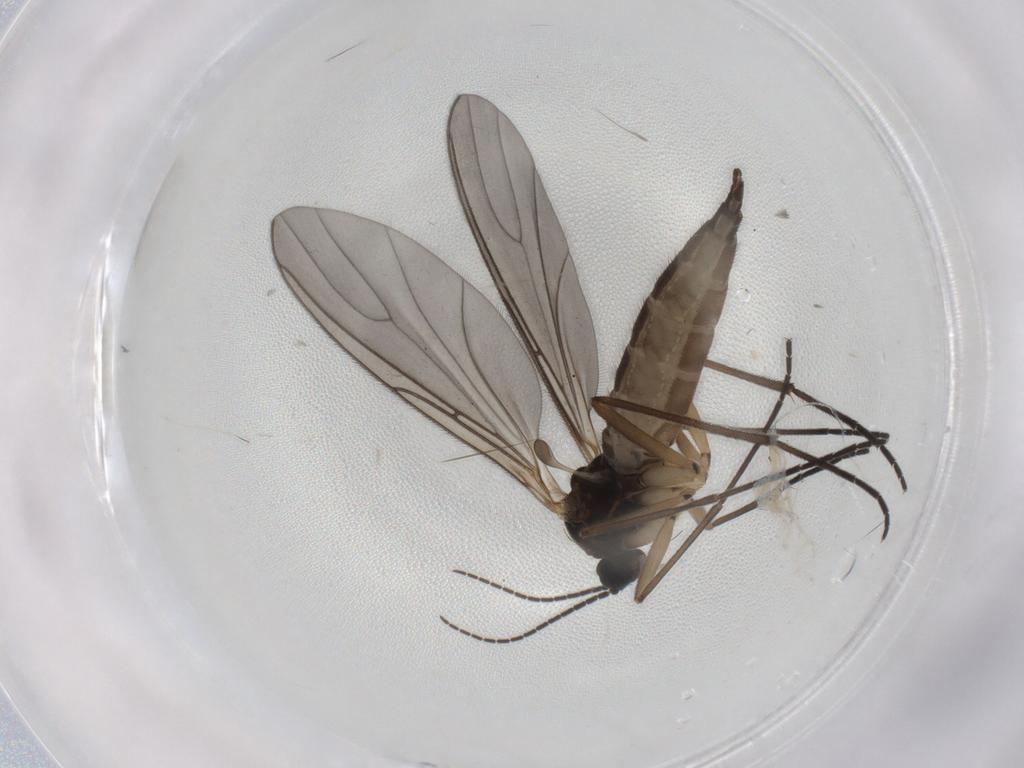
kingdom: Animalia
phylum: Arthropoda
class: Insecta
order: Diptera
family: Sciaridae
